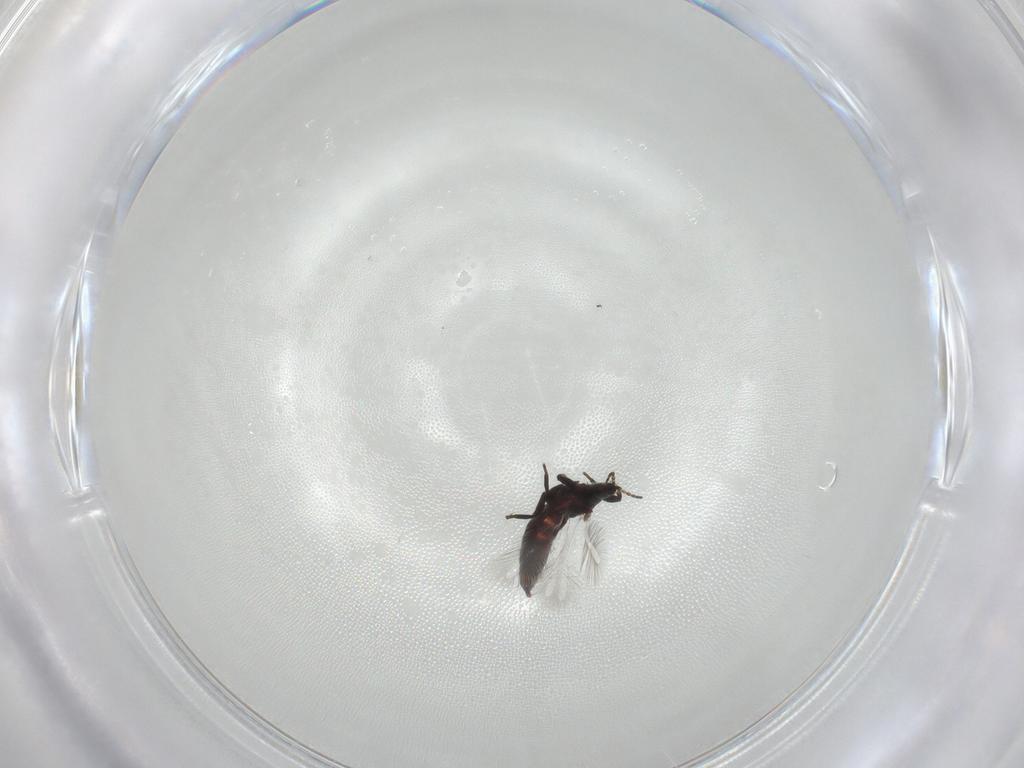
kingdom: Animalia
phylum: Arthropoda
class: Insecta
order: Thysanoptera
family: Phlaeothripidae
